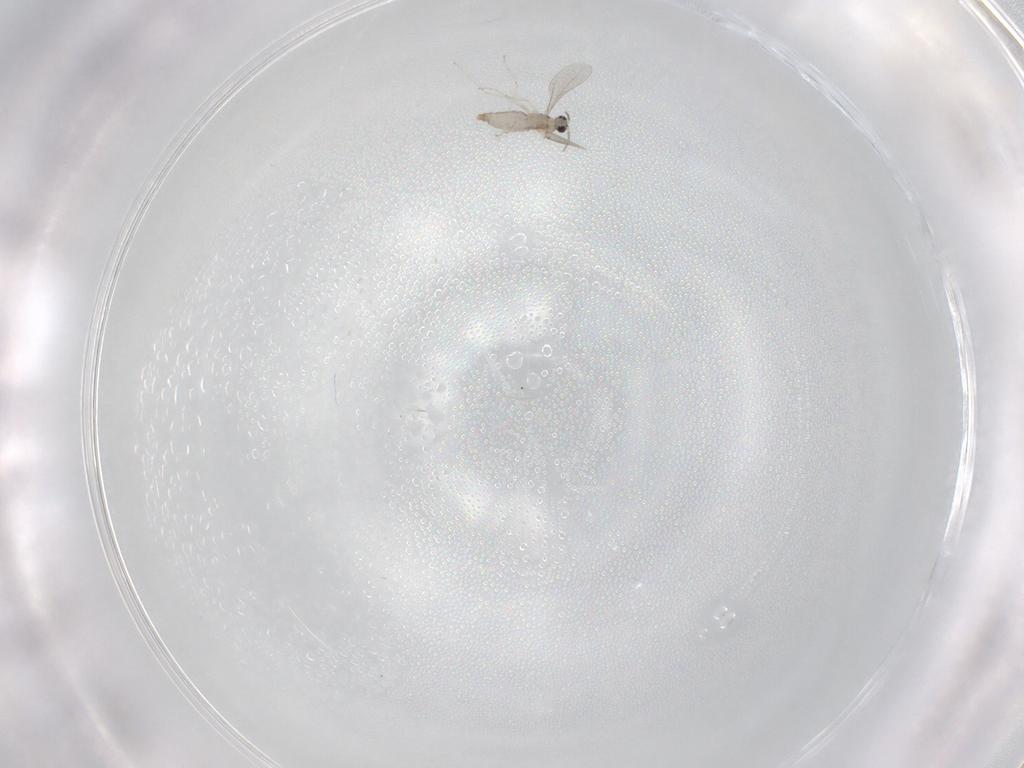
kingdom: Animalia
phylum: Arthropoda
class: Insecta
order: Diptera
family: Chironomidae
